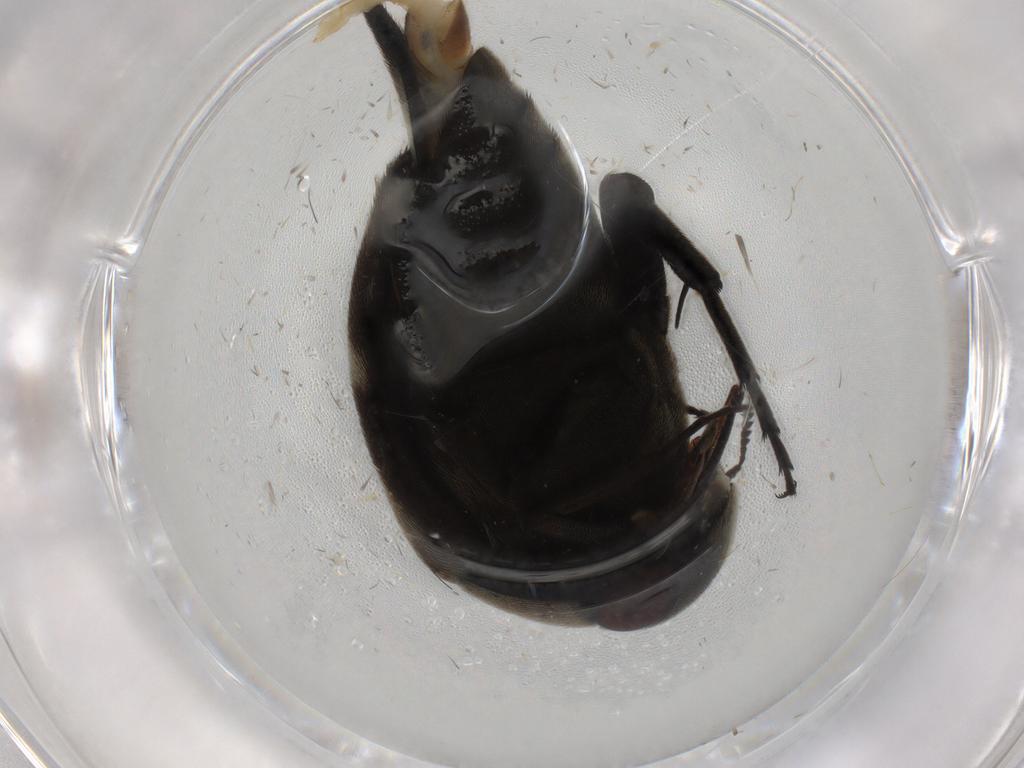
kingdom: Animalia
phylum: Arthropoda
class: Insecta
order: Coleoptera
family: Mordellidae
